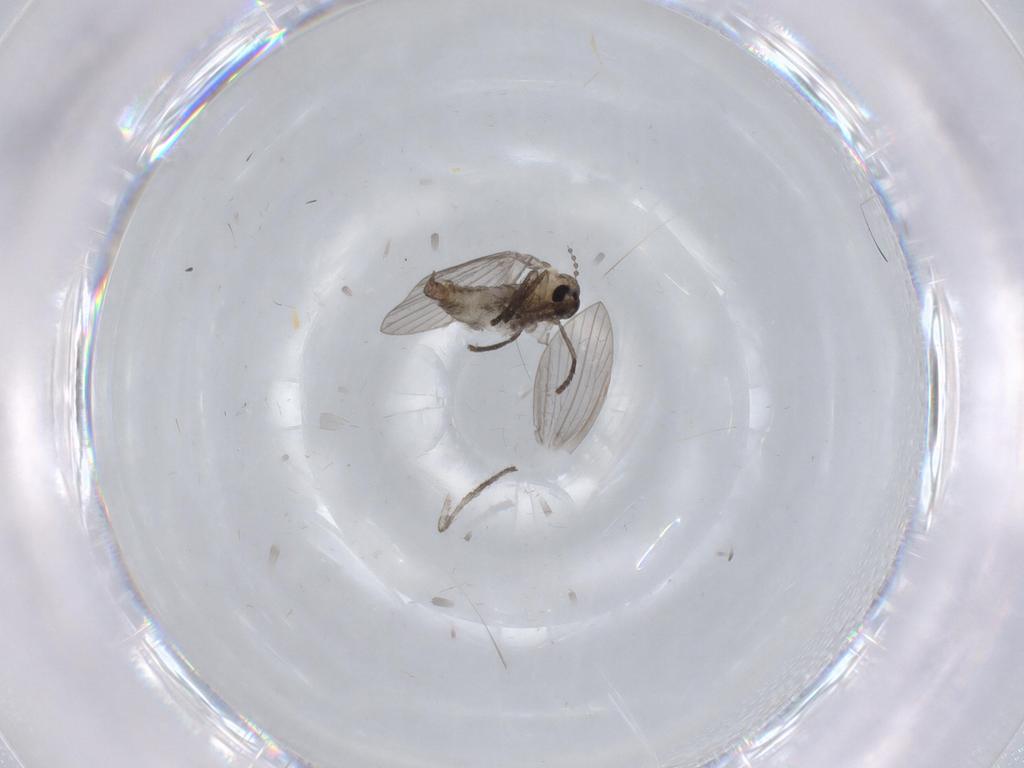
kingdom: Animalia
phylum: Arthropoda
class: Insecta
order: Diptera
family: Psychodidae
